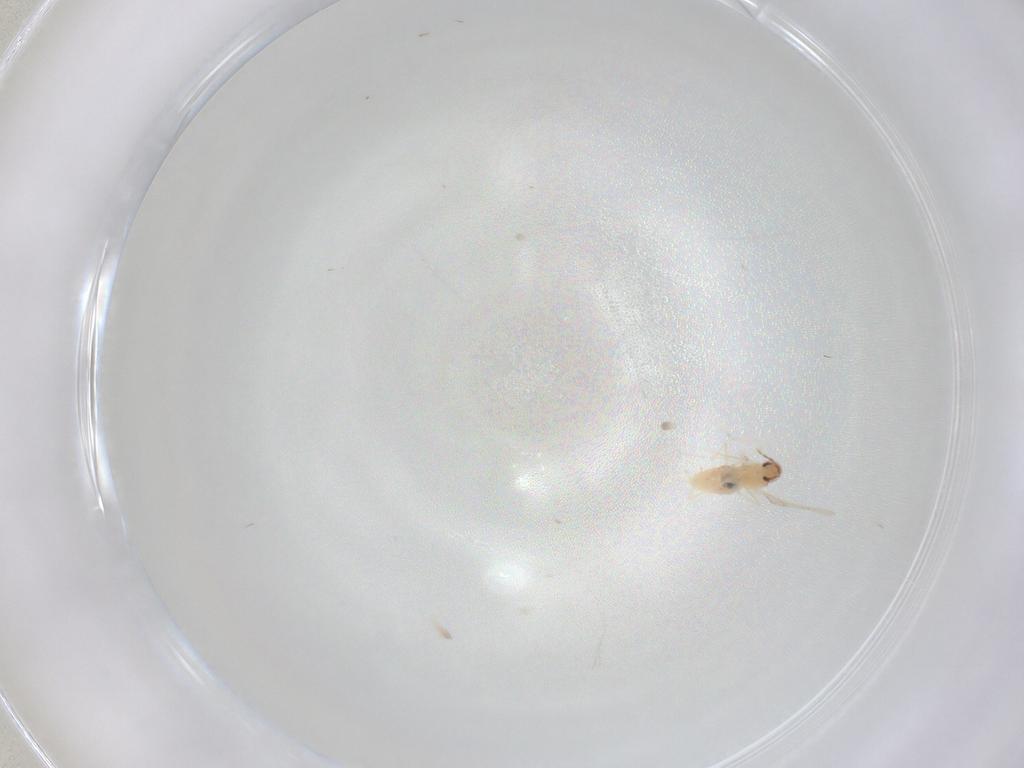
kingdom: Animalia
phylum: Arthropoda
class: Insecta
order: Diptera
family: Cecidomyiidae
